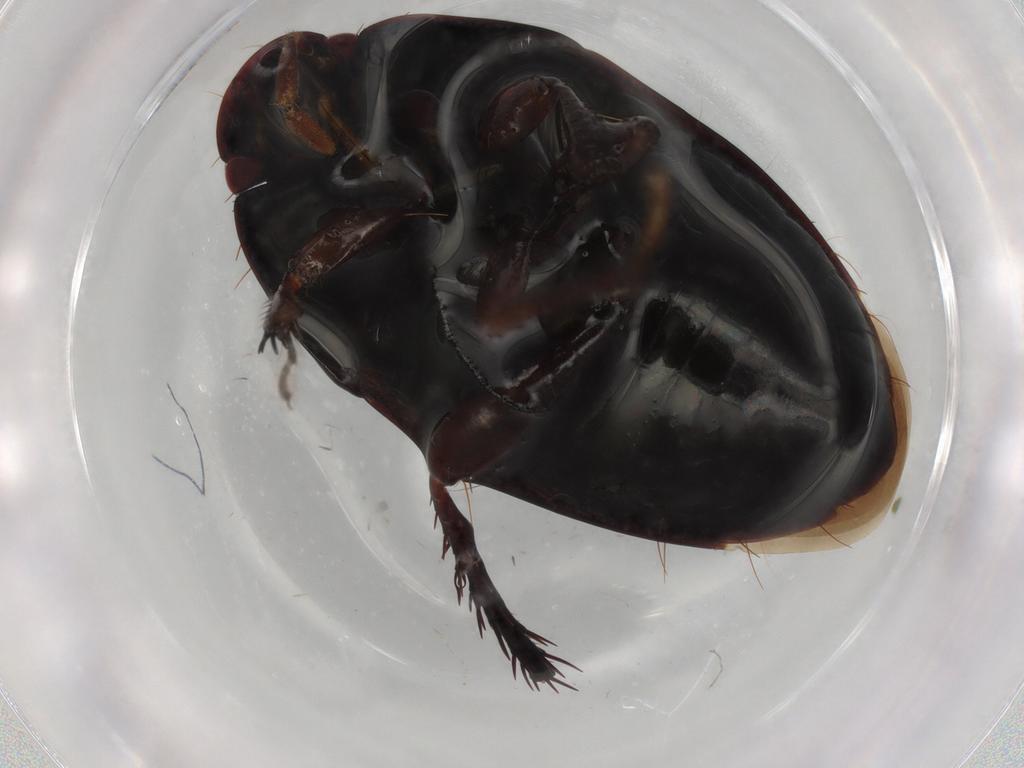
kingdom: Animalia
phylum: Arthropoda
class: Insecta
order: Hemiptera
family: Cydnidae
